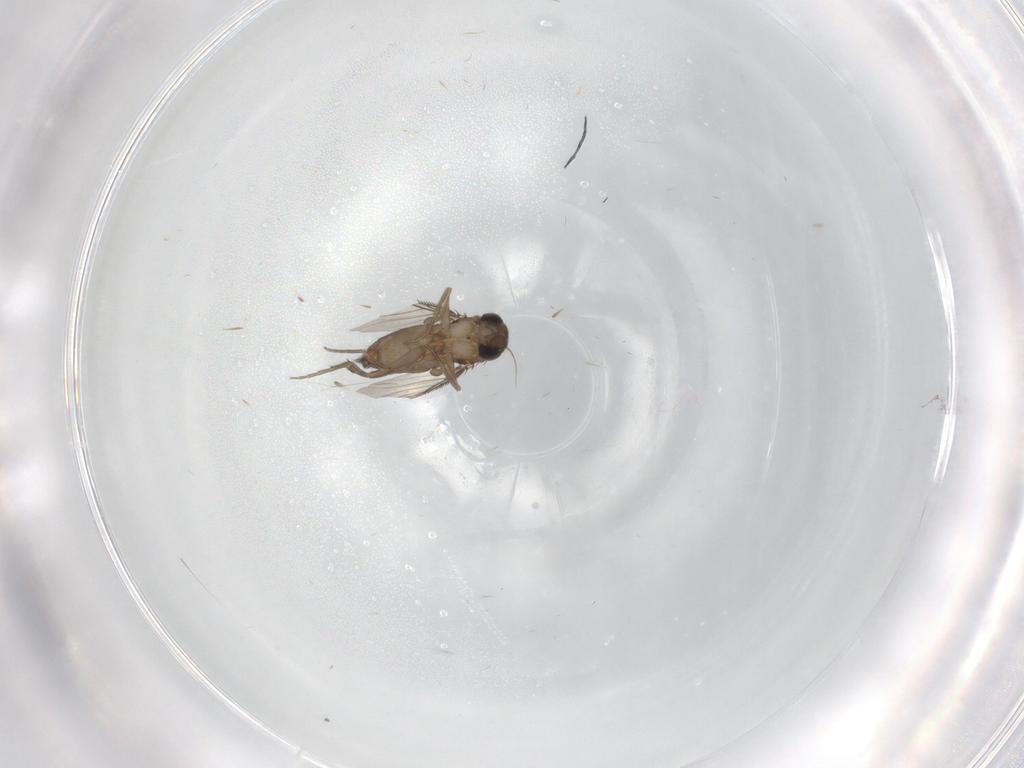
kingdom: Animalia
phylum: Arthropoda
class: Insecta
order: Diptera
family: Phoridae
